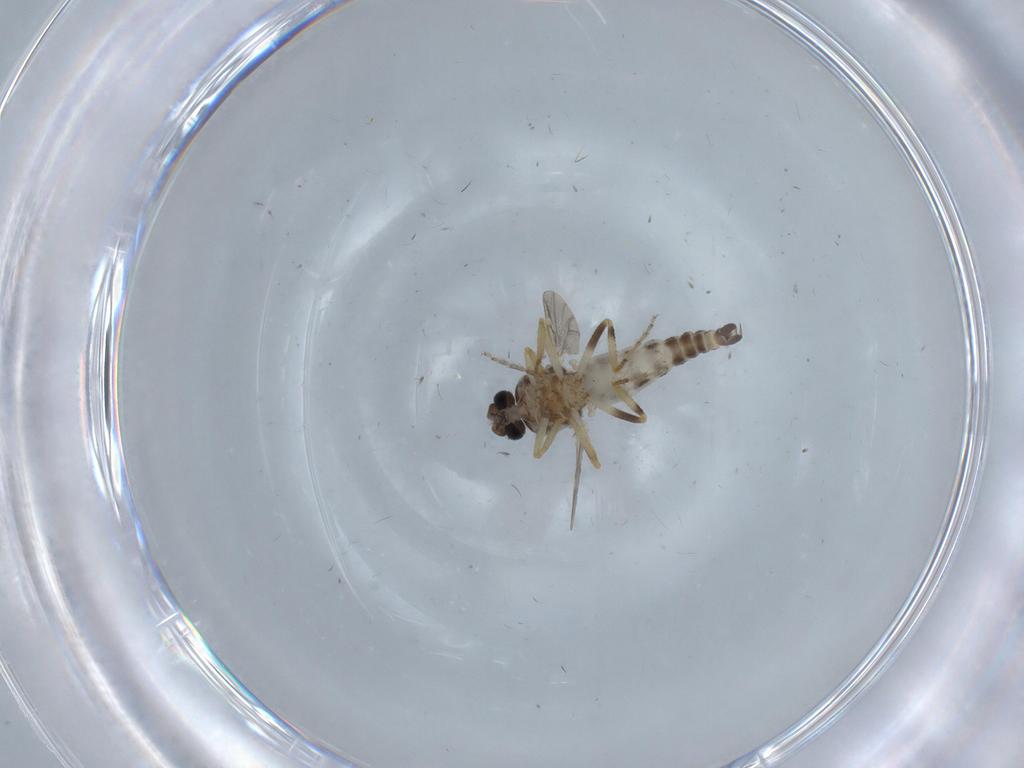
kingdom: Animalia
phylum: Arthropoda
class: Insecta
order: Diptera
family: Ceratopogonidae
